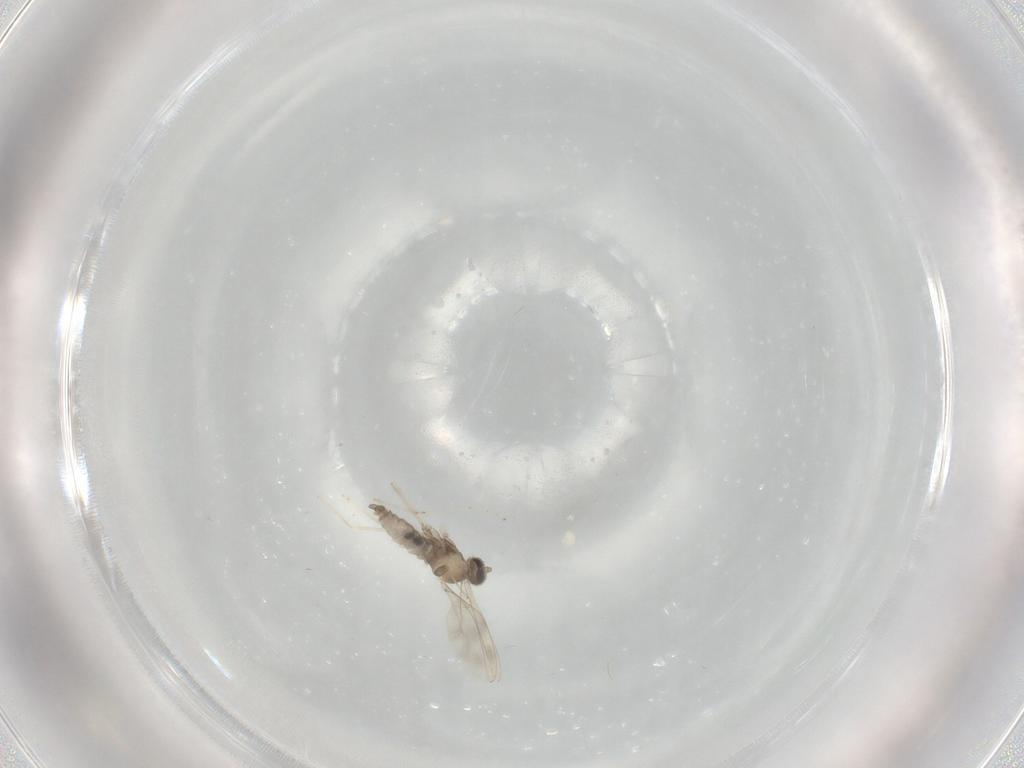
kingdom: Animalia
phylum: Arthropoda
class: Insecta
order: Diptera
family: Cecidomyiidae
